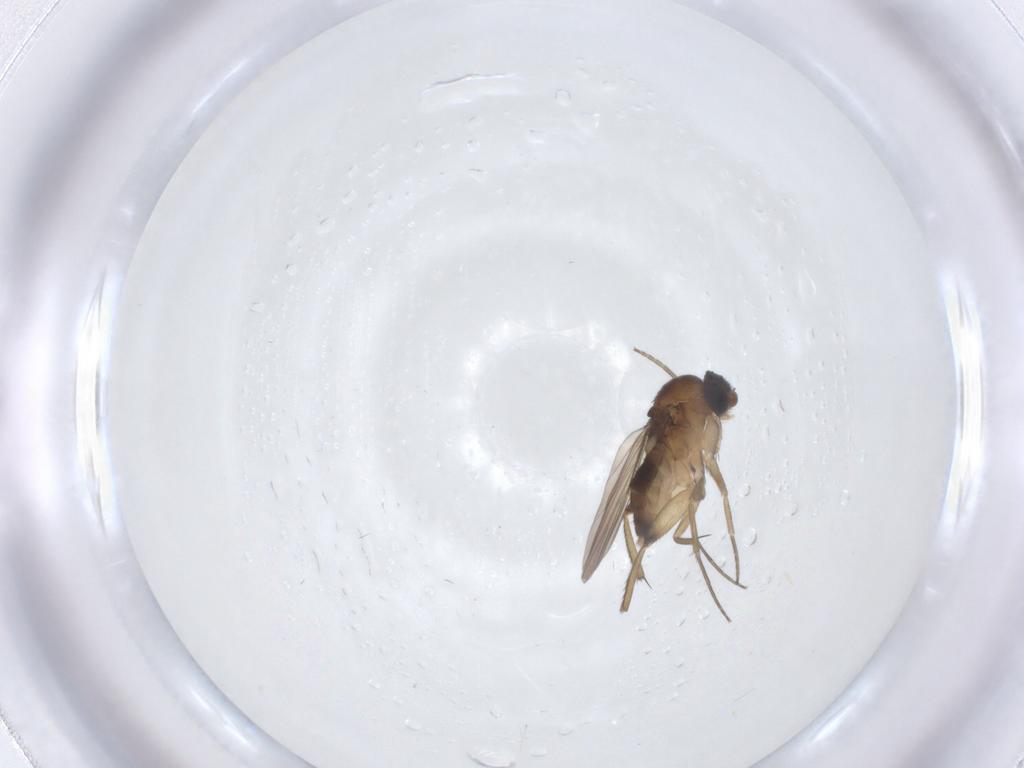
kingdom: Animalia
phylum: Arthropoda
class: Insecta
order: Diptera
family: Phoridae
